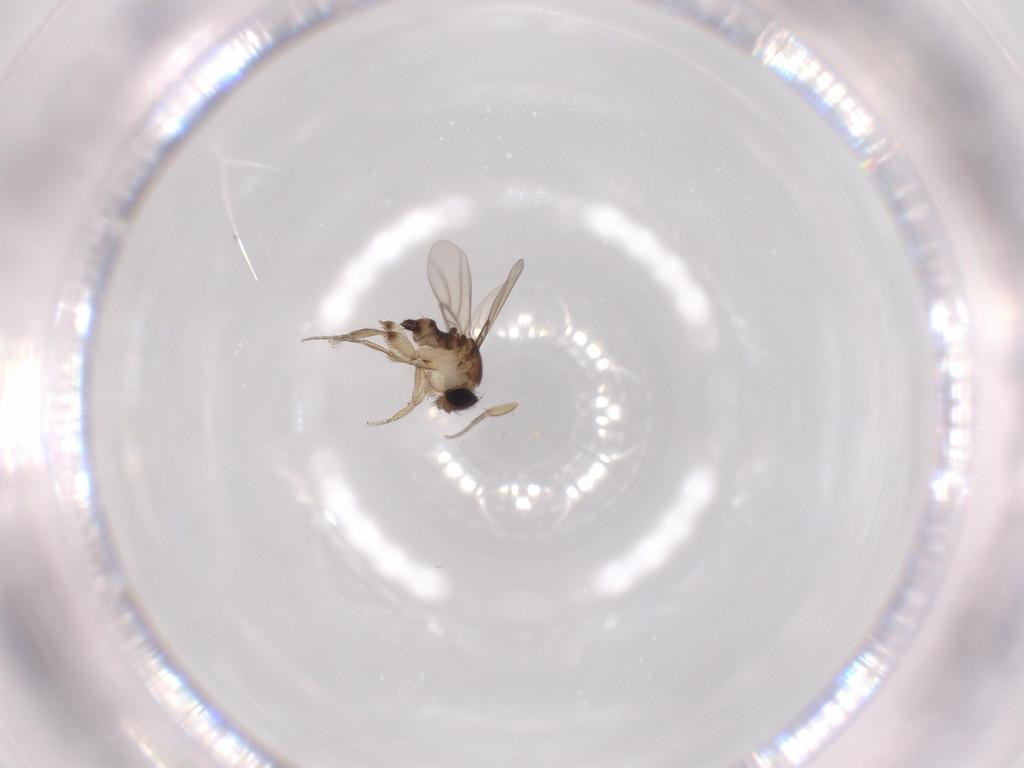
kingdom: Animalia
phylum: Arthropoda
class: Insecta
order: Diptera
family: Phoridae
